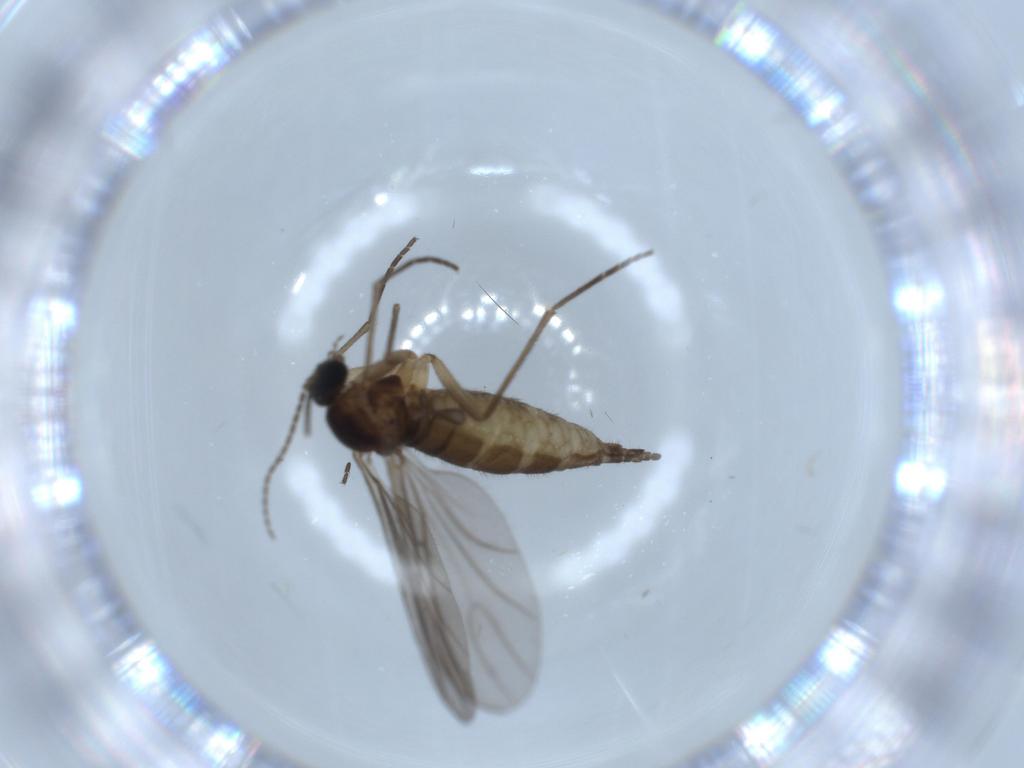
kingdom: Animalia
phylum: Arthropoda
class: Insecta
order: Diptera
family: Sciaridae
